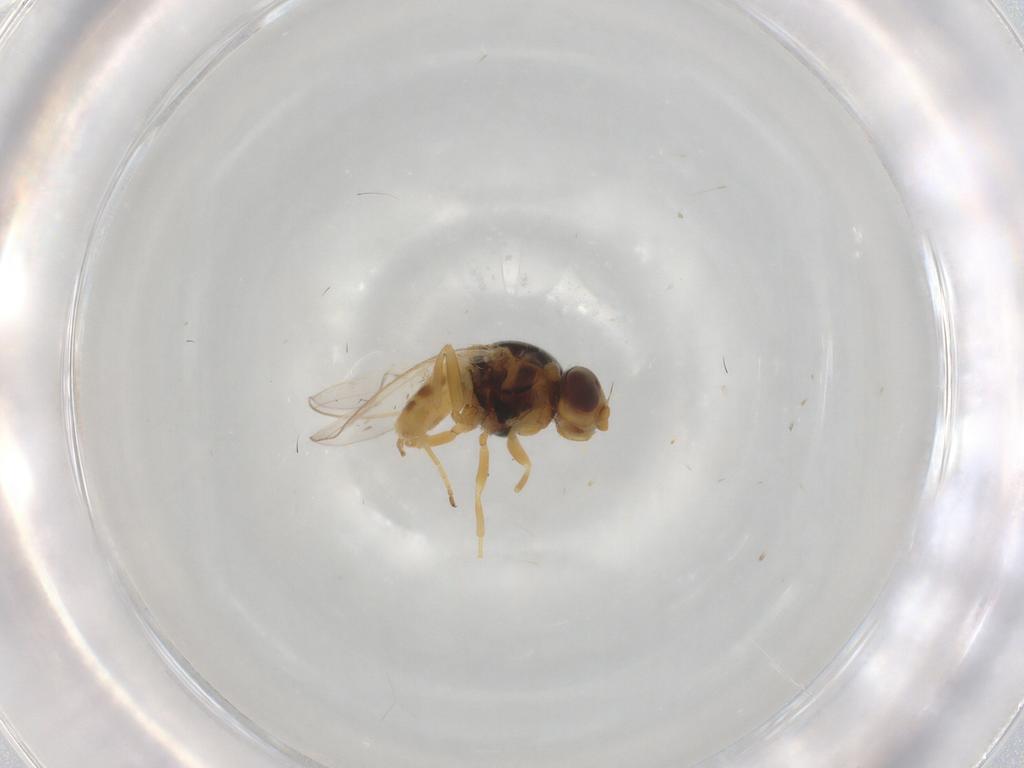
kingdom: Animalia
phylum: Arthropoda
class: Insecta
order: Diptera
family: Chloropidae
